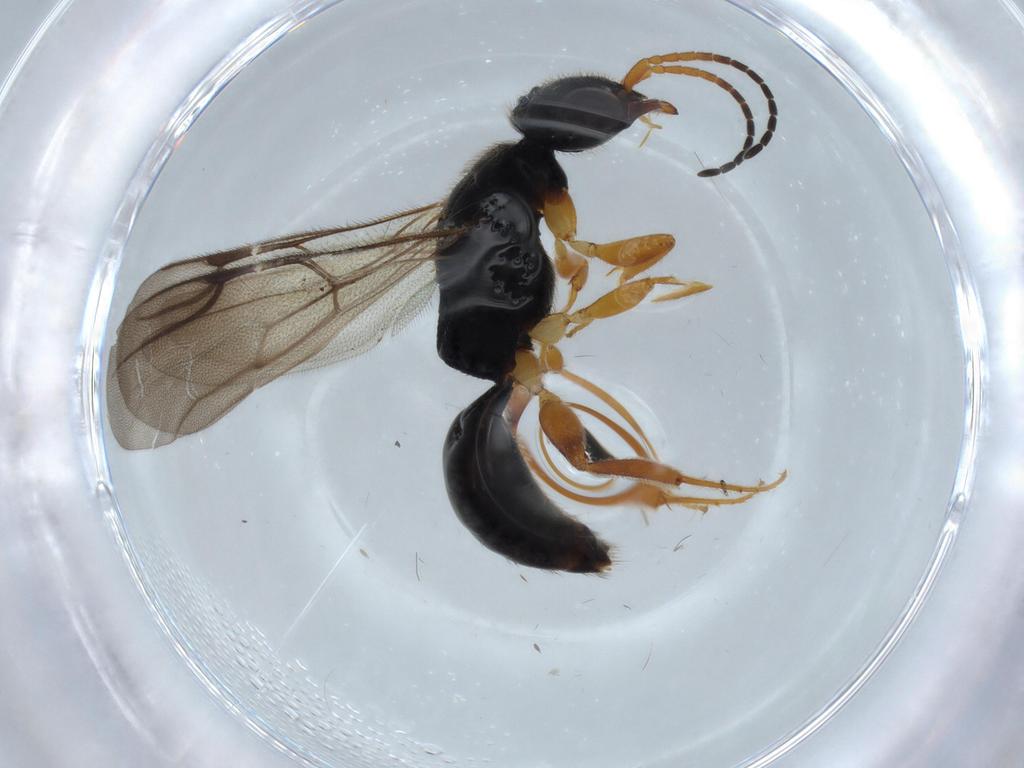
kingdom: Animalia
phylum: Arthropoda
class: Insecta
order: Hymenoptera
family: Bethylidae
